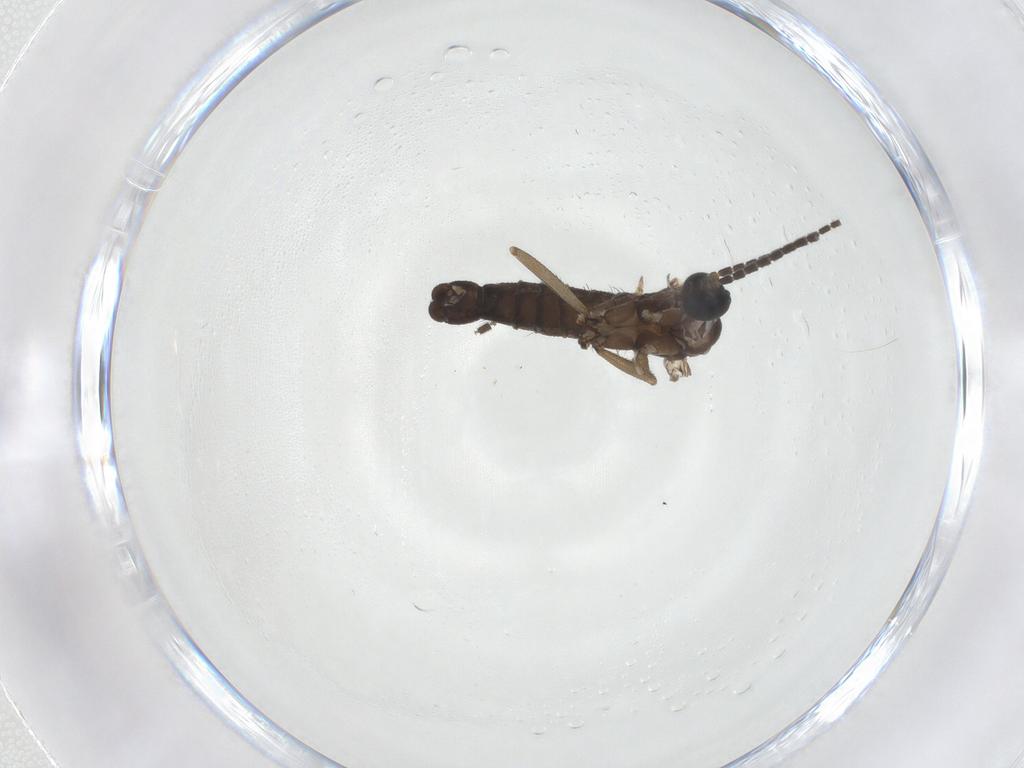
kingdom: Animalia
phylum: Arthropoda
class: Insecta
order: Diptera
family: Sciaridae
